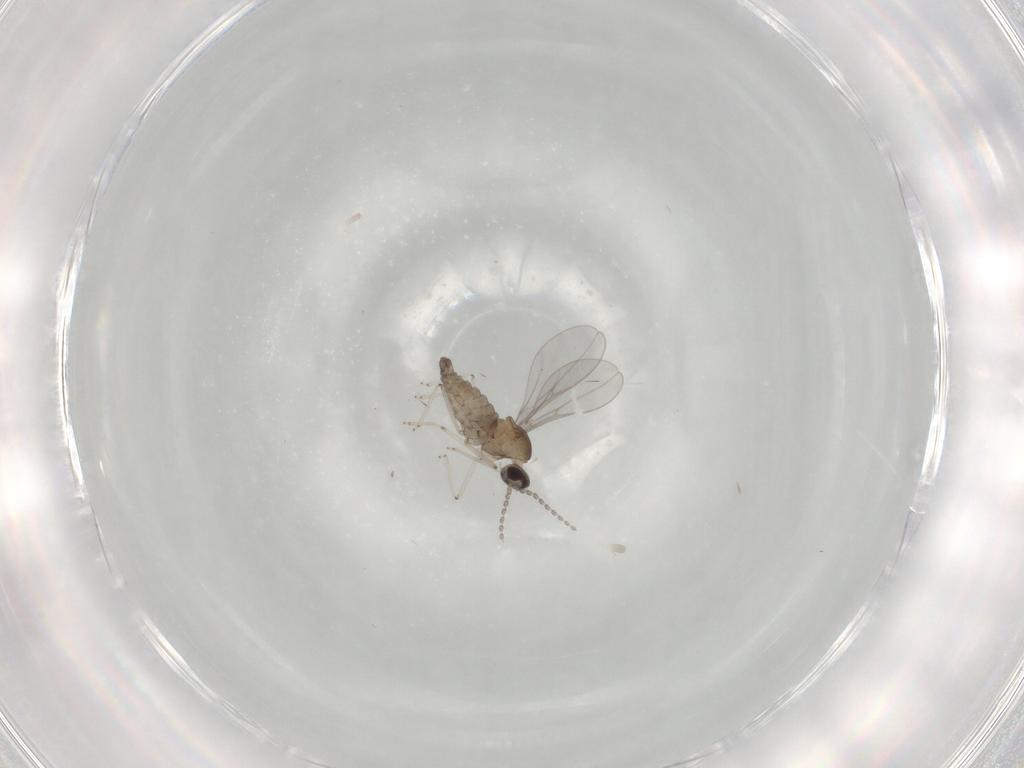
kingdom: Animalia
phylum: Arthropoda
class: Insecta
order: Diptera
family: Cecidomyiidae
